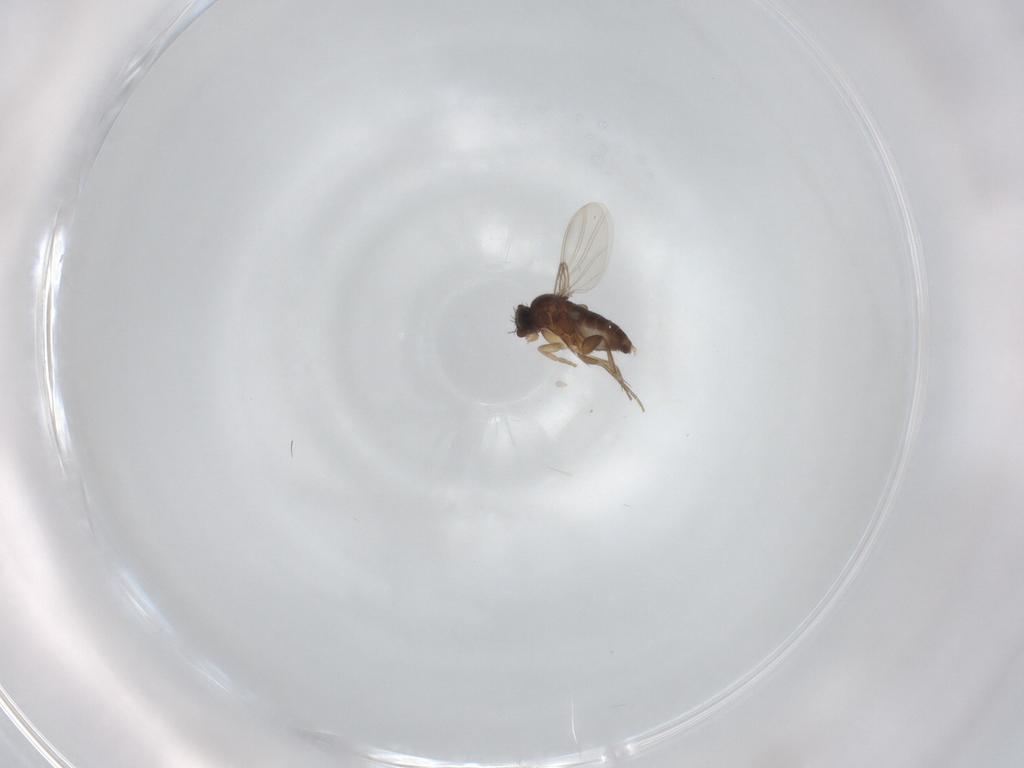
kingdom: Animalia
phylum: Arthropoda
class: Insecta
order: Diptera
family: Phoridae
